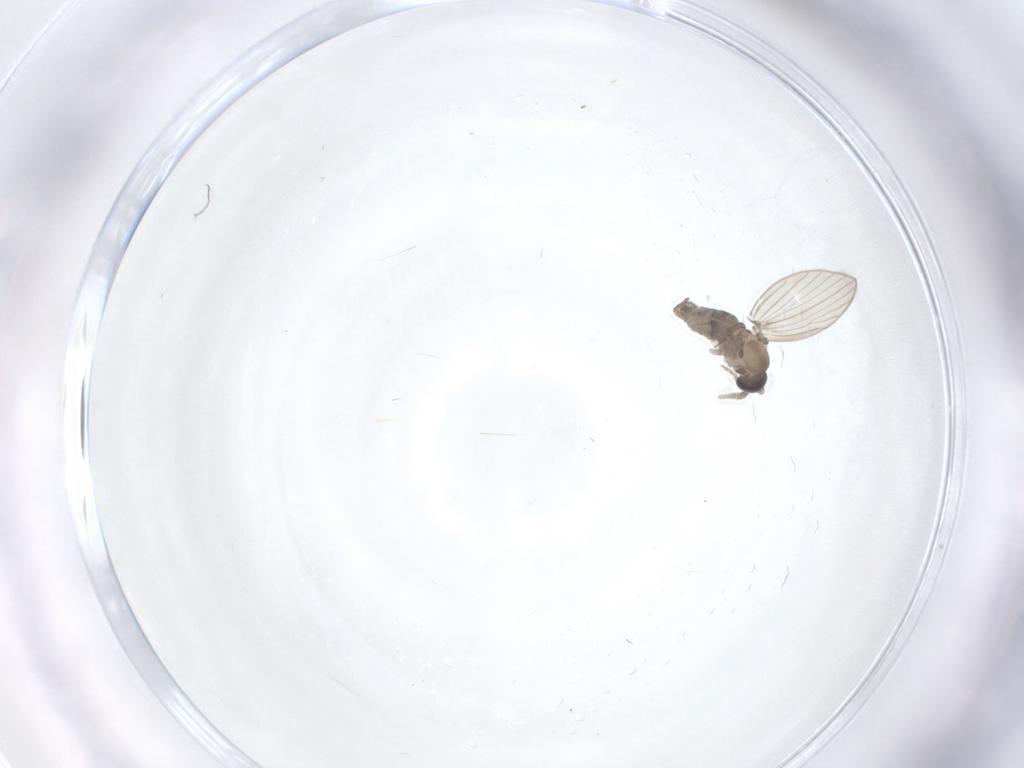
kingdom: Animalia
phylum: Arthropoda
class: Insecta
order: Diptera
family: Psychodidae
